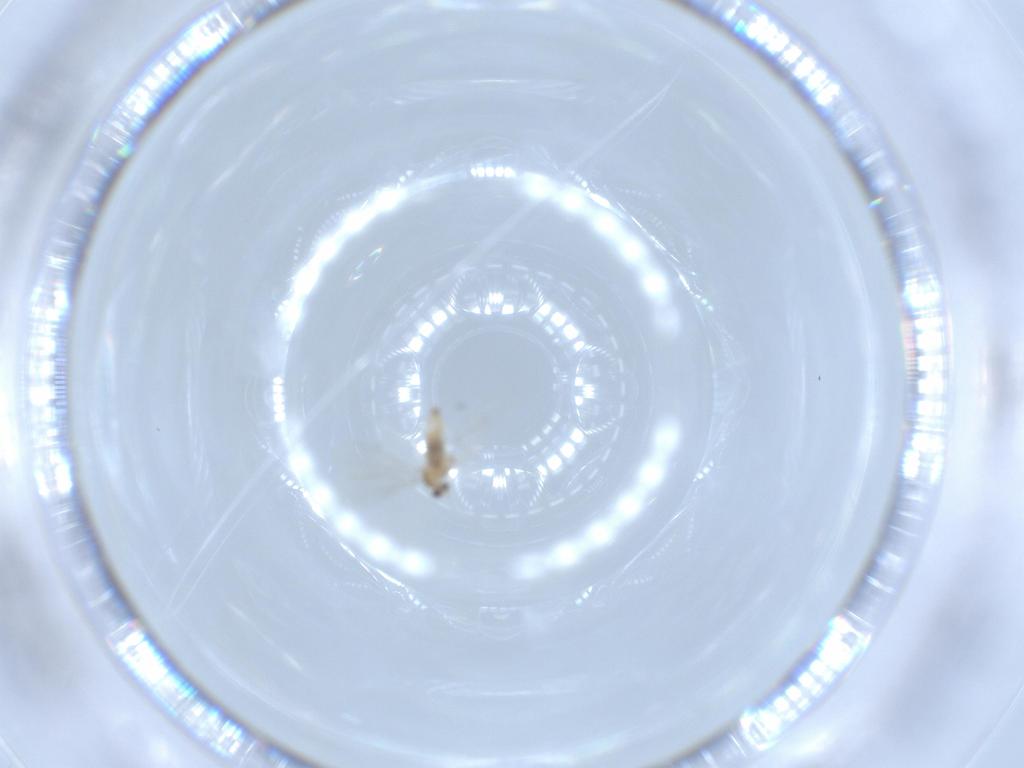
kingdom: Animalia
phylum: Arthropoda
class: Insecta
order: Diptera
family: Cecidomyiidae
